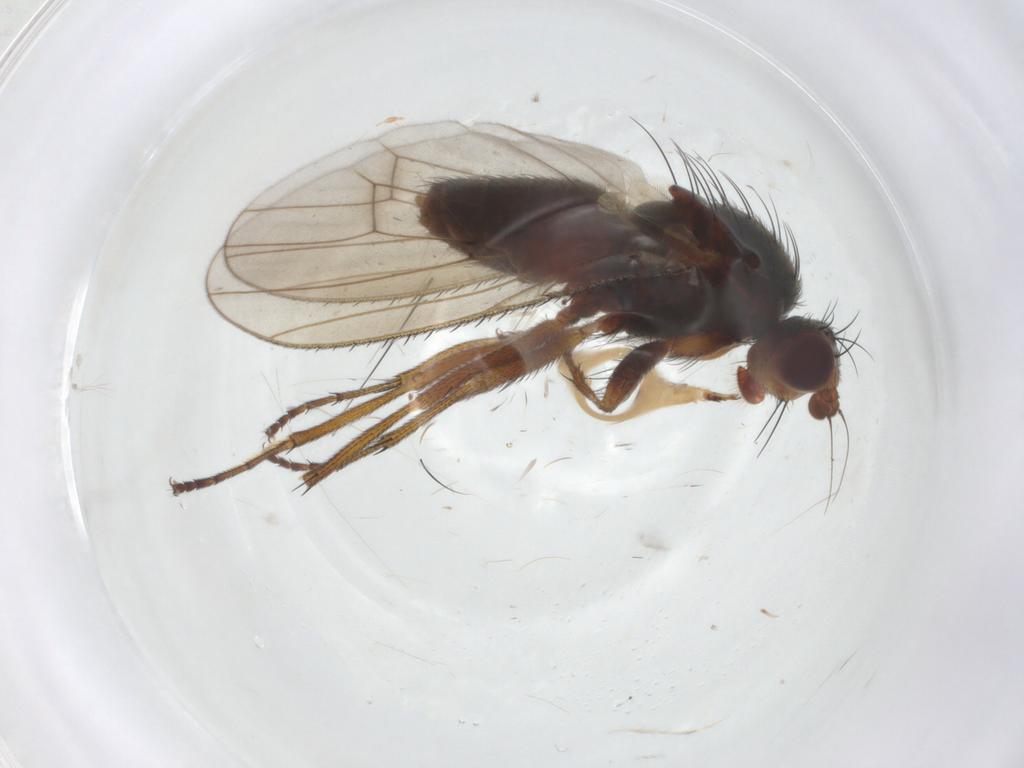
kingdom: Animalia
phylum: Arthropoda
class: Insecta
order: Diptera
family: Heleomyzidae
